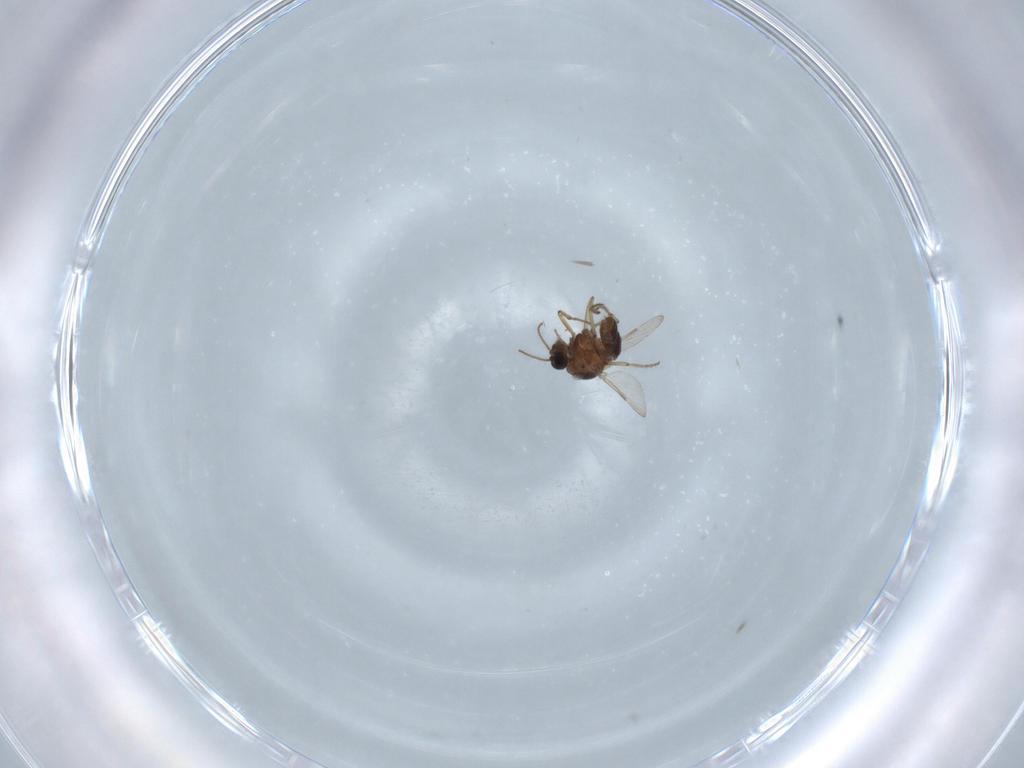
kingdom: Animalia
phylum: Arthropoda
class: Insecta
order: Diptera
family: Ceratopogonidae
